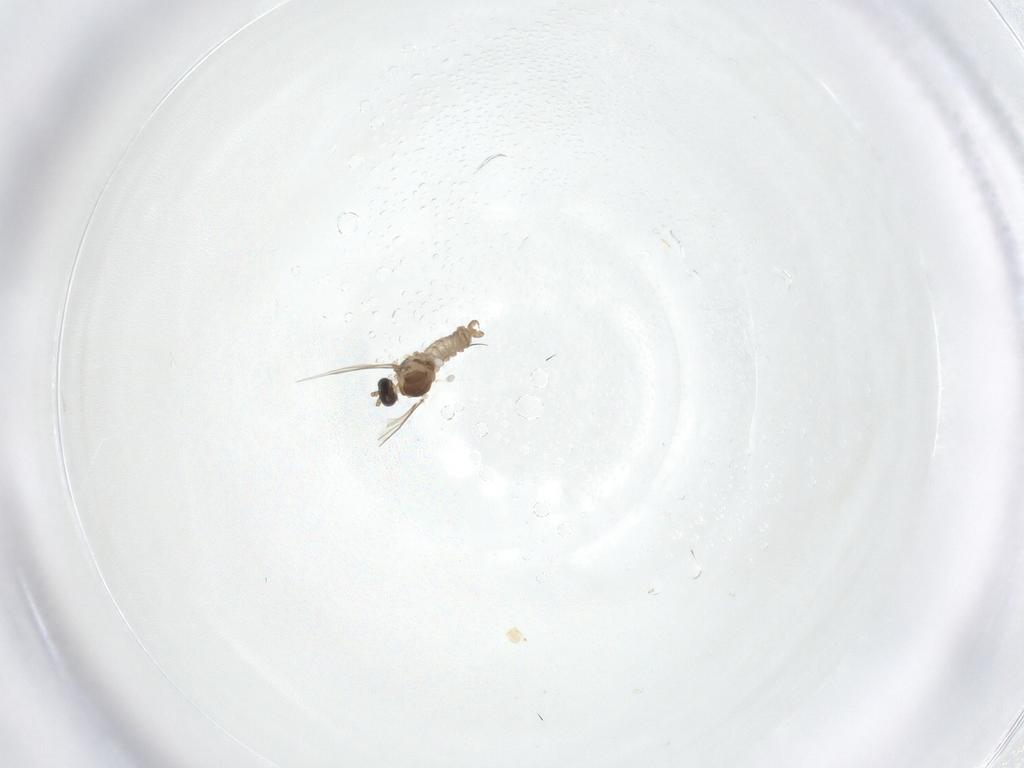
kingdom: Animalia
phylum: Arthropoda
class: Insecta
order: Diptera
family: Cecidomyiidae
